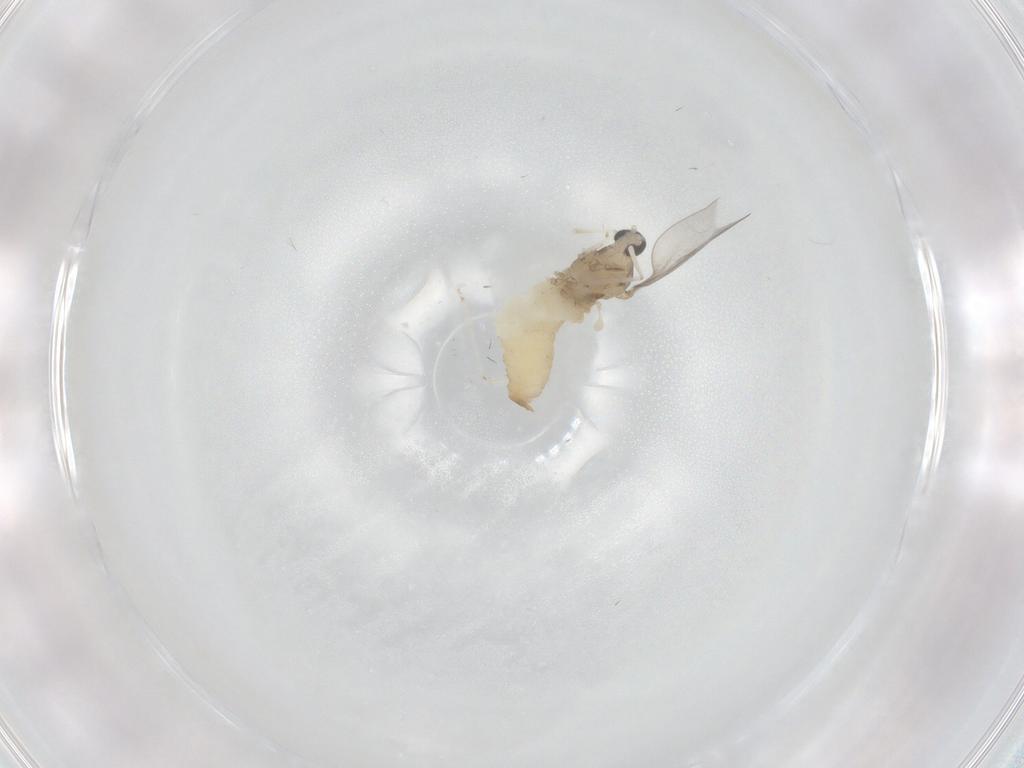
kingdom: Animalia
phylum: Arthropoda
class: Insecta
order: Diptera
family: Cecidomyiidae
